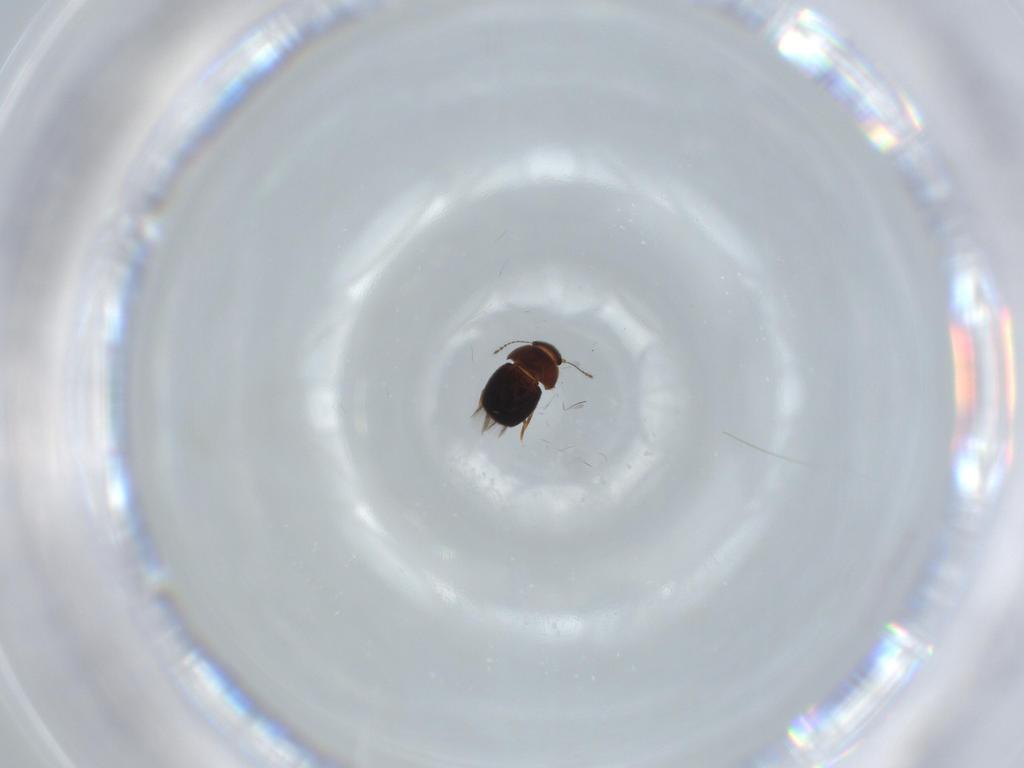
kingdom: Animalia
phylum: Arthropoda
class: Insecta
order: Coleoptera
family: Ptiliidae
